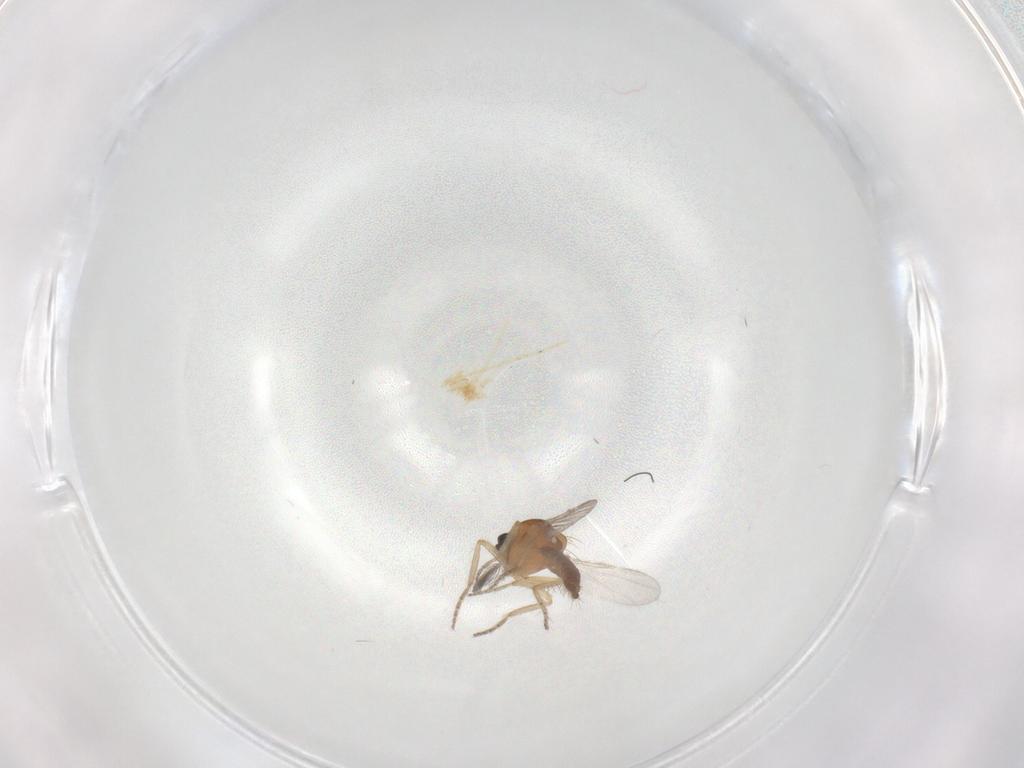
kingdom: Animalia
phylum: Arthropoda
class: Insecta
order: Diptera
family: Ceratopogonidae
